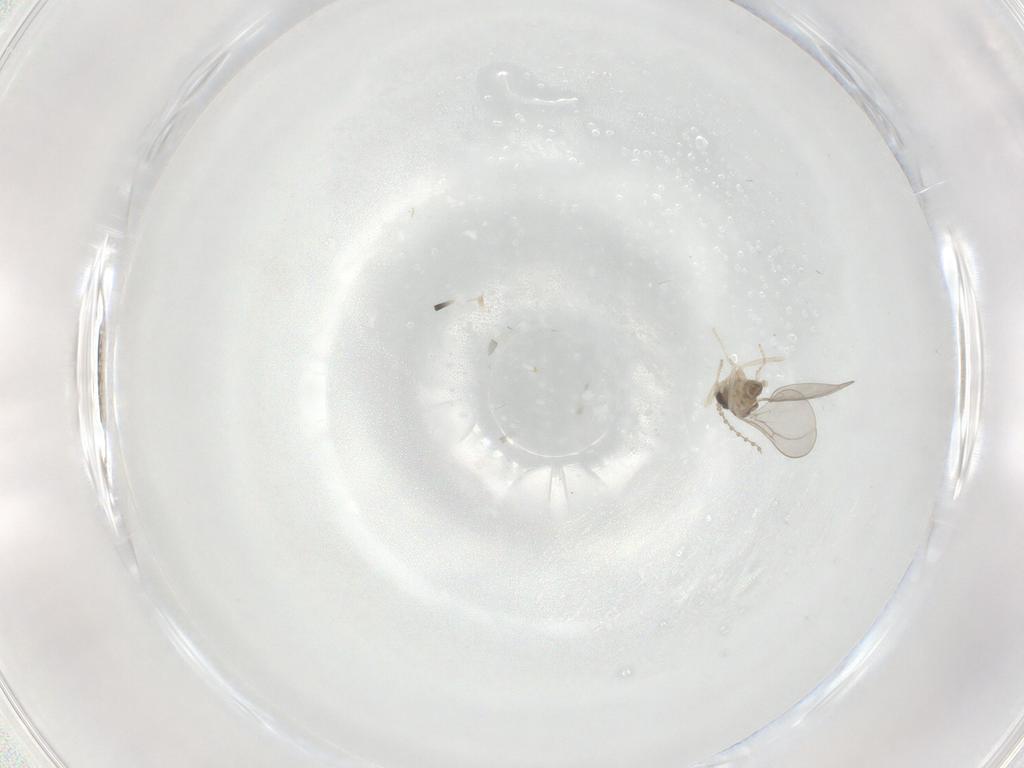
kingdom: Animalia
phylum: Arthropoda
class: Insecta
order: Diptera
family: Cecidomyiidae
